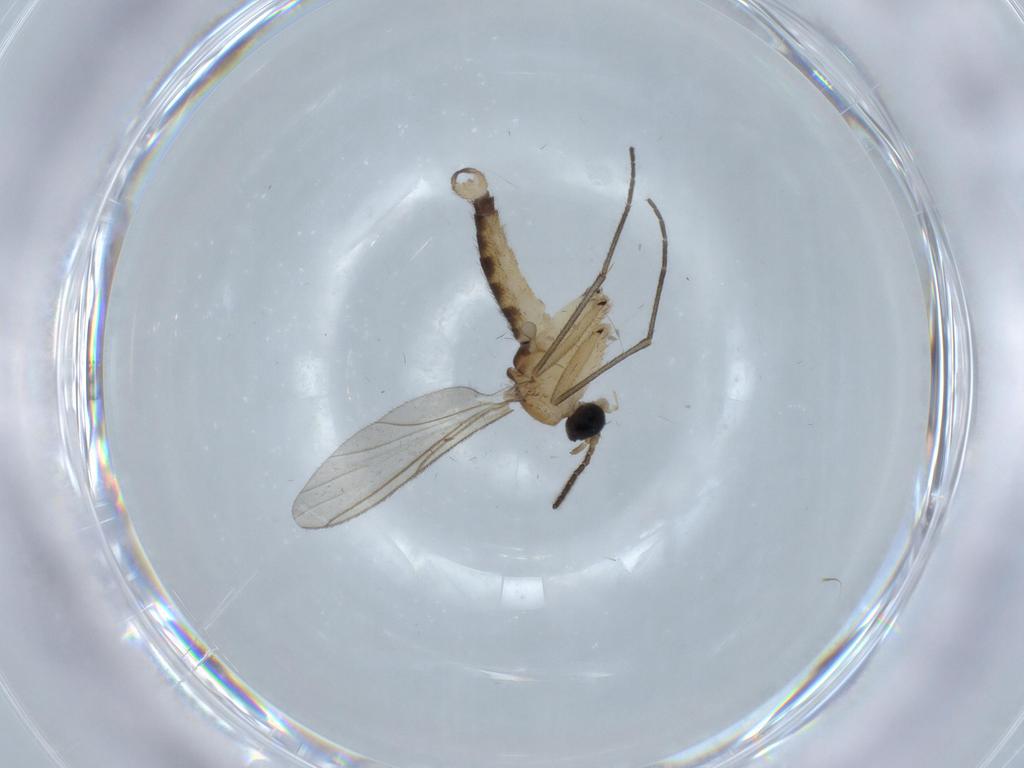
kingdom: Animalia
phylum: Arthropoda
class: Insecta
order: Diptera
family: Sciaridae
